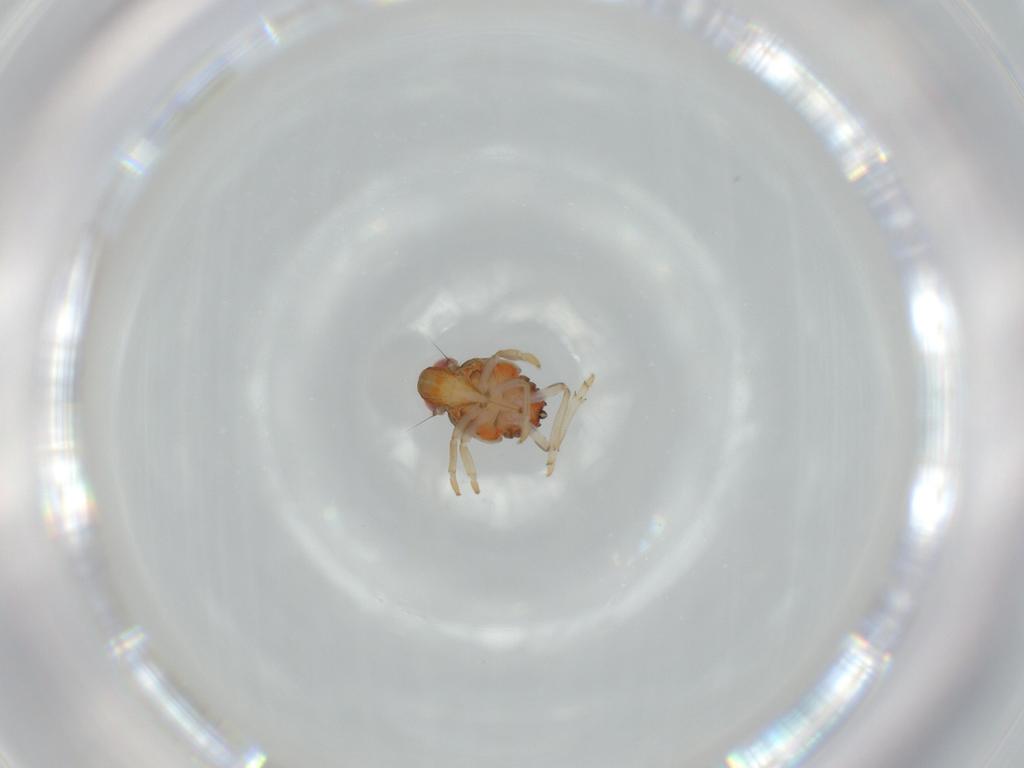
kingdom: Animalia
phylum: Arthropoda
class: Insecta
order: Hemiptera
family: Issidae
